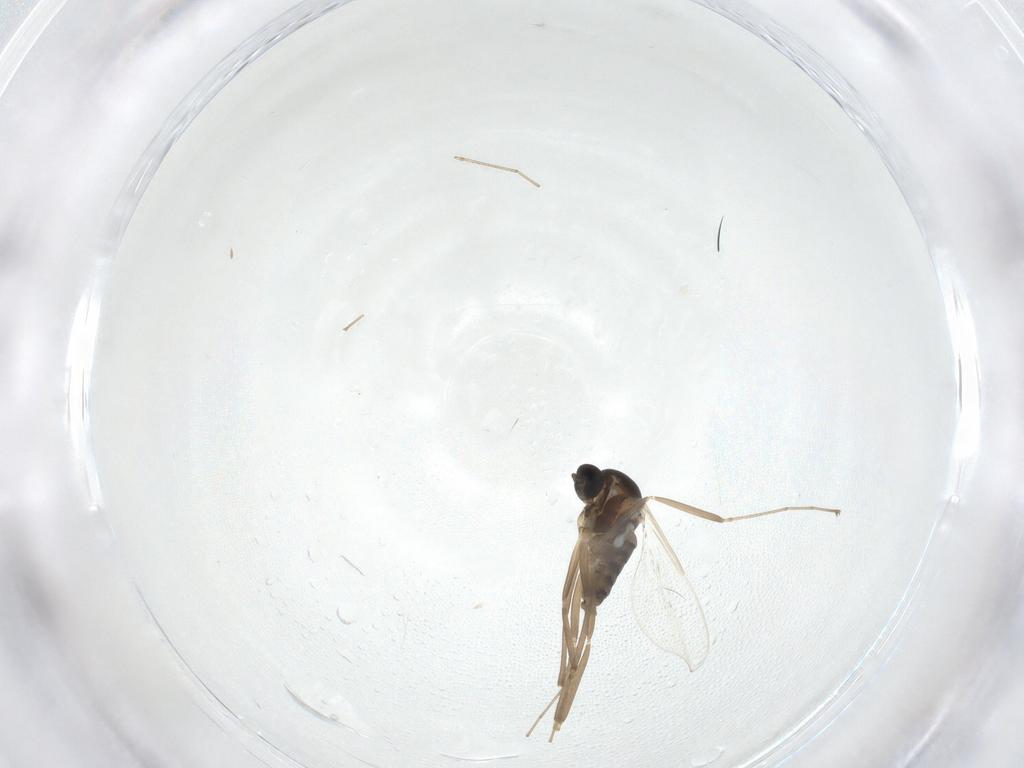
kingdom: Animalia
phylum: Arthropoda
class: Insecta
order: Diptera
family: Cecidomyiidae
